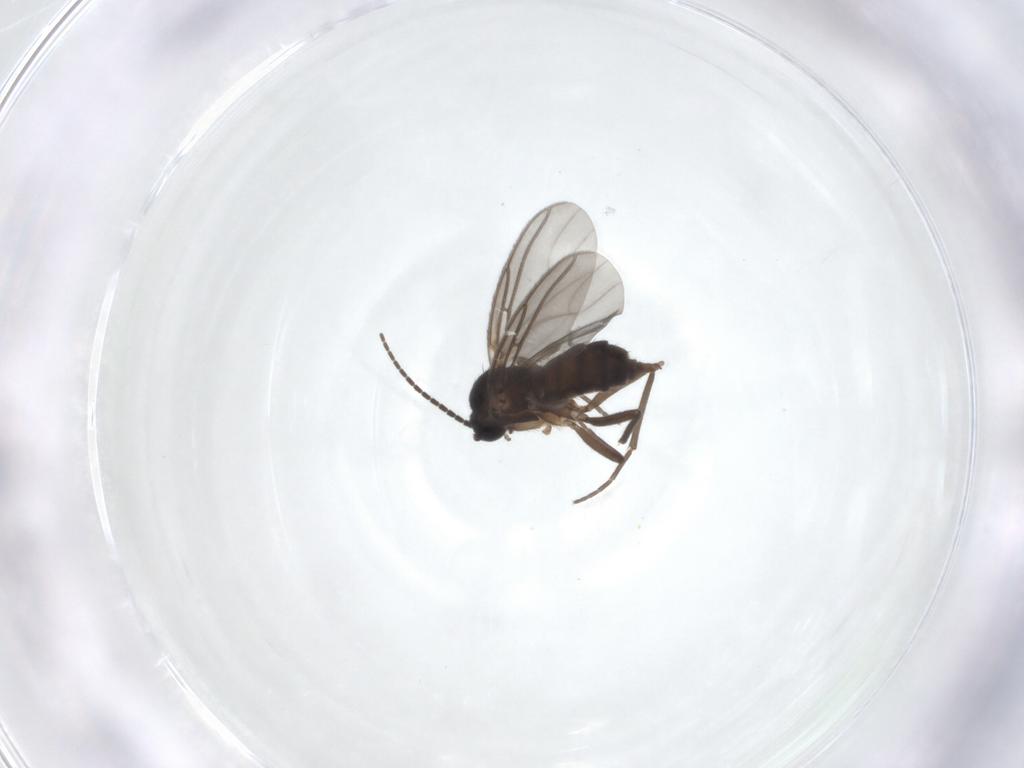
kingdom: Animalia
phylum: Arthropoda
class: Insecta
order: Diptera
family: Sciaridae
